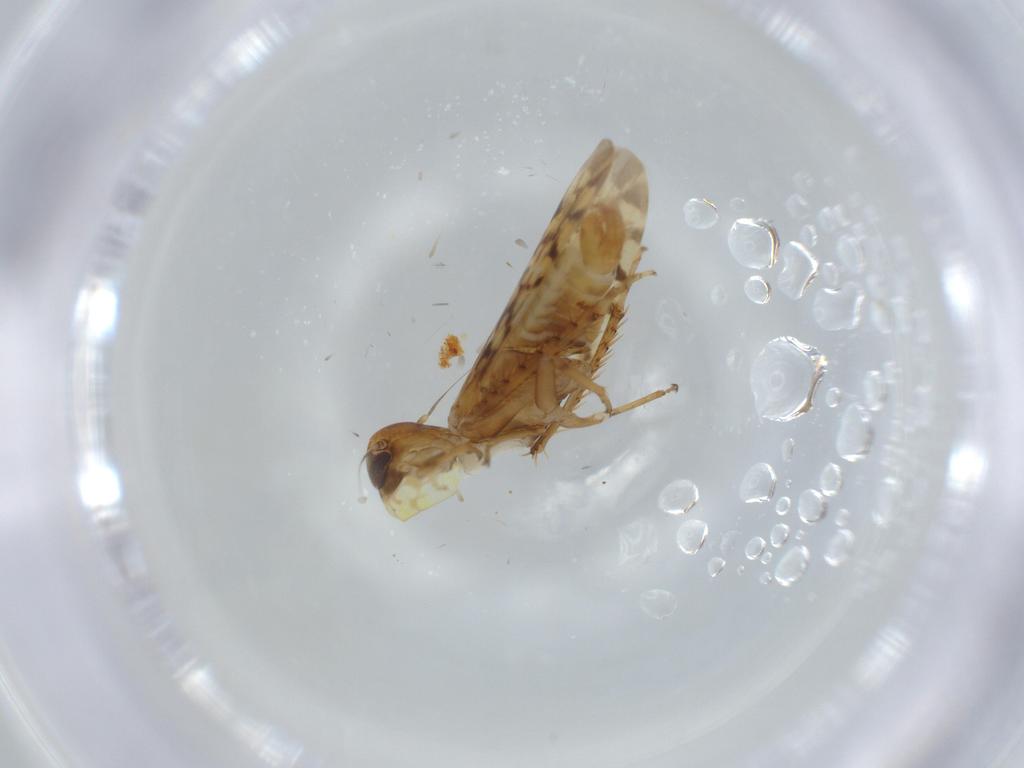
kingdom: Animalia
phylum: Arthropoda
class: Insecta
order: Hemiptera
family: Cicadellidae
